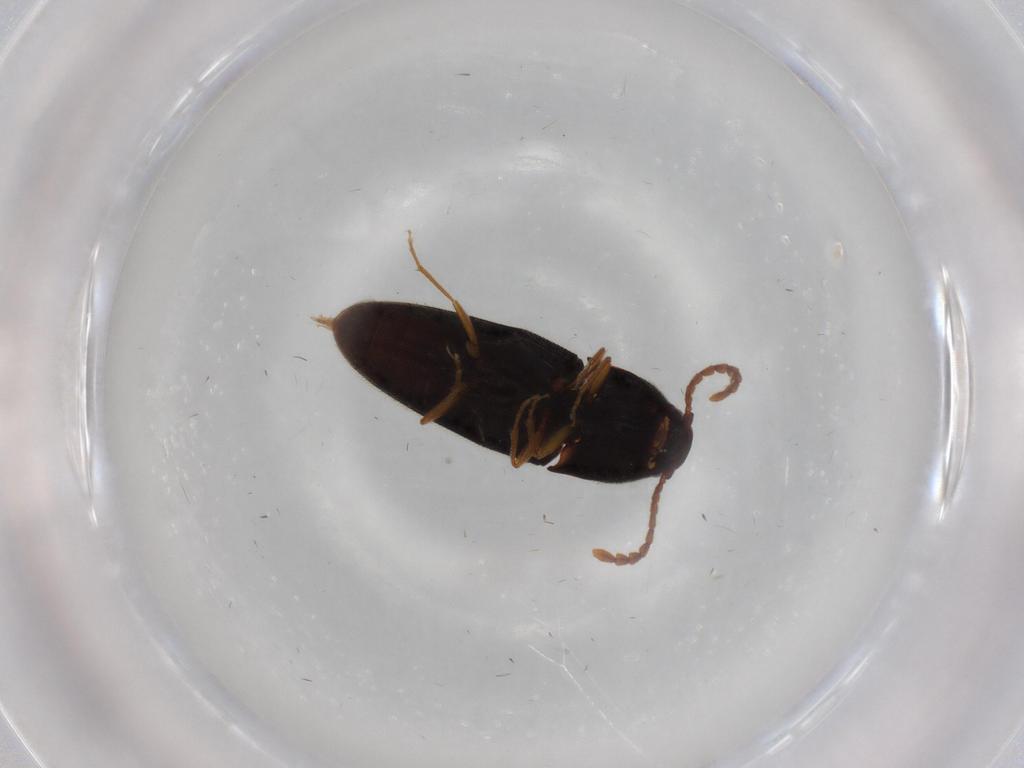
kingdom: Animalia
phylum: Arthropoda
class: Insecta
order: Coleoptera
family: Elateridae
